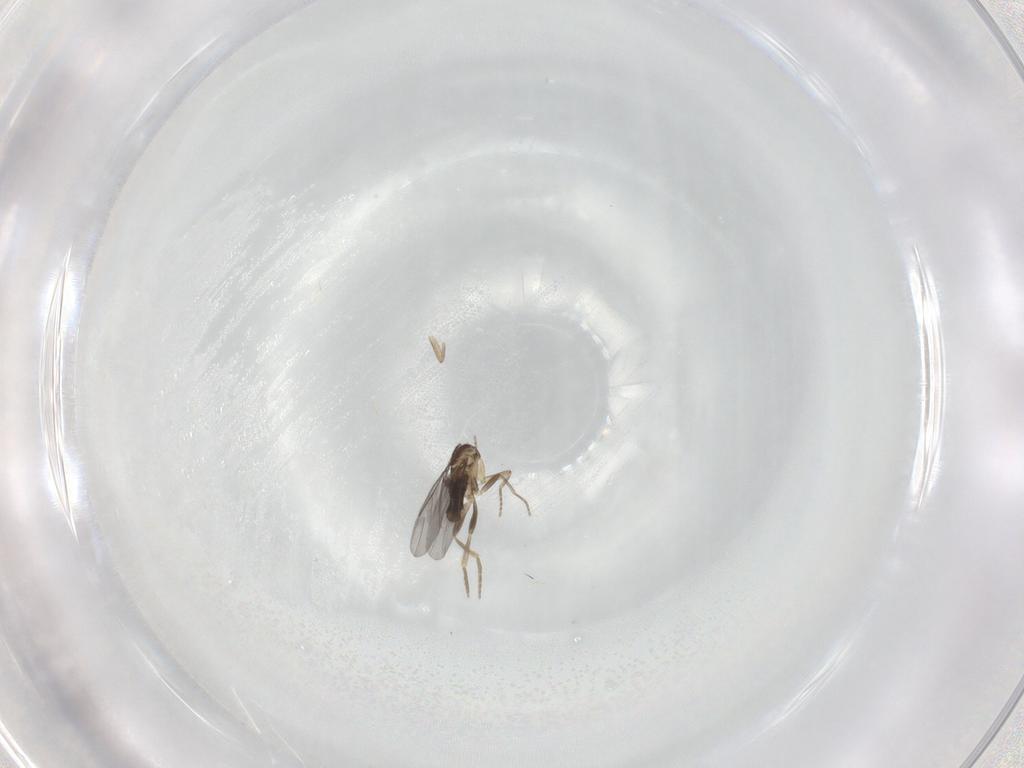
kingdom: Animalia
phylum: Arthropoda
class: Insecta
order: Diptera
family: Phoridae
